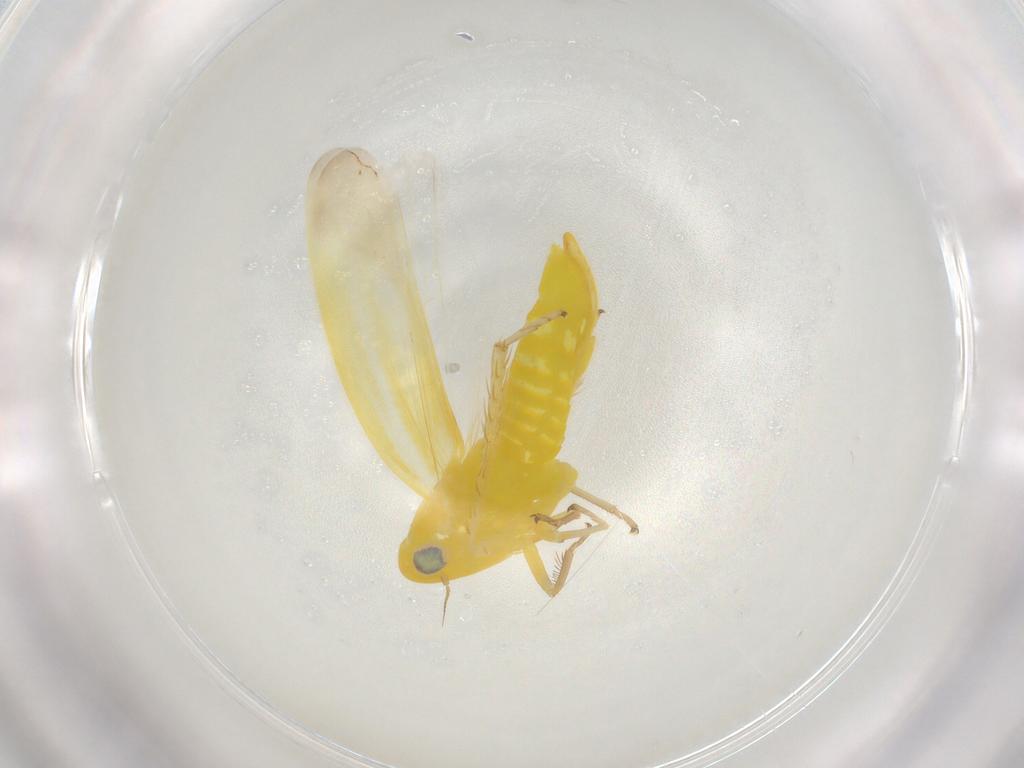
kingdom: Animalia
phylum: Arthropoda
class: Insecta
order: Hemiptera
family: Cicadellidae
